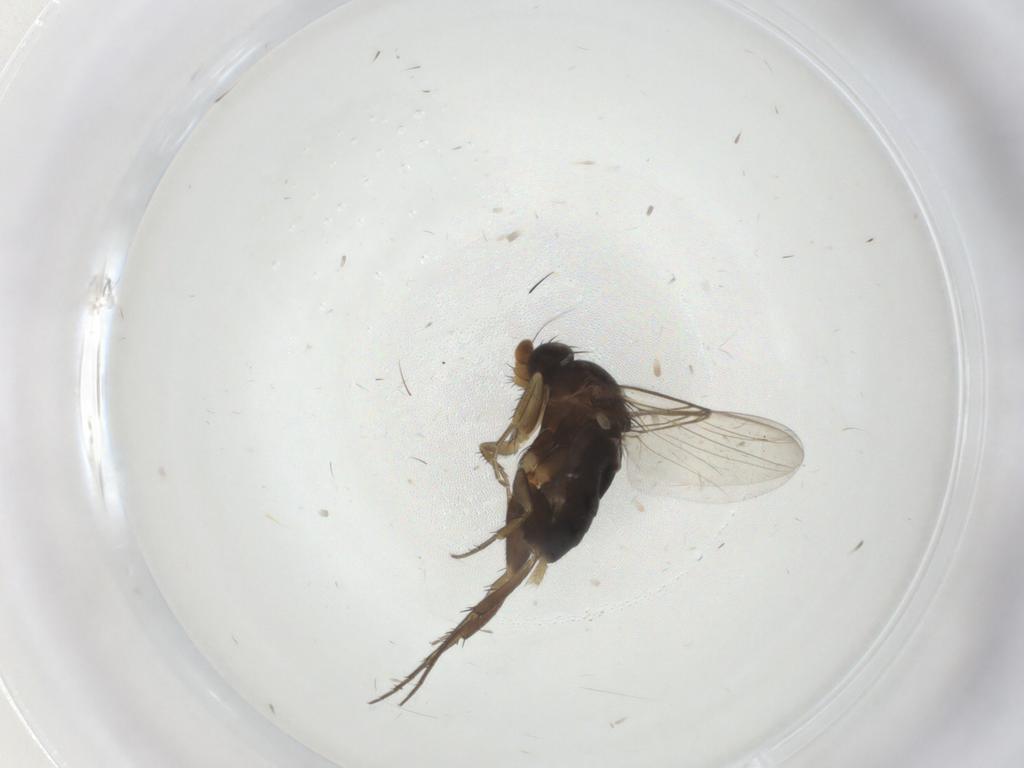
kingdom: Animalia
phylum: Arthropoda
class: Insecta
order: Diptera
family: Phoridae
